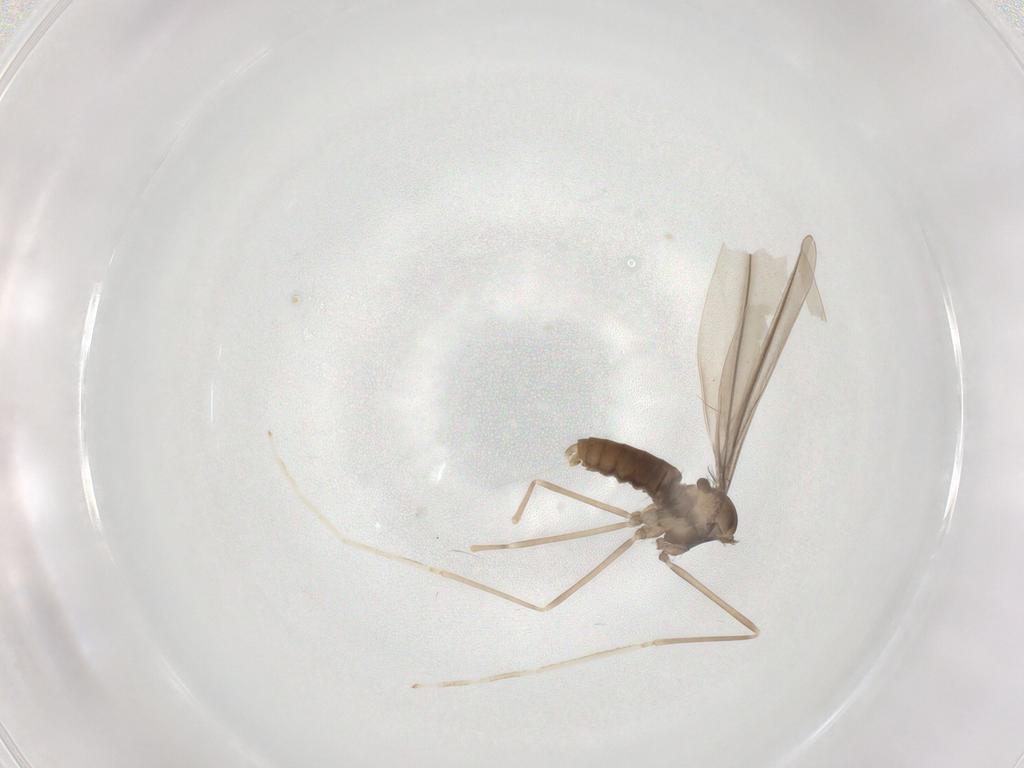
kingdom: Animalia
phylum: Arthropoda
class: Insecta
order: Diptera
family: Cecidomyiidae
